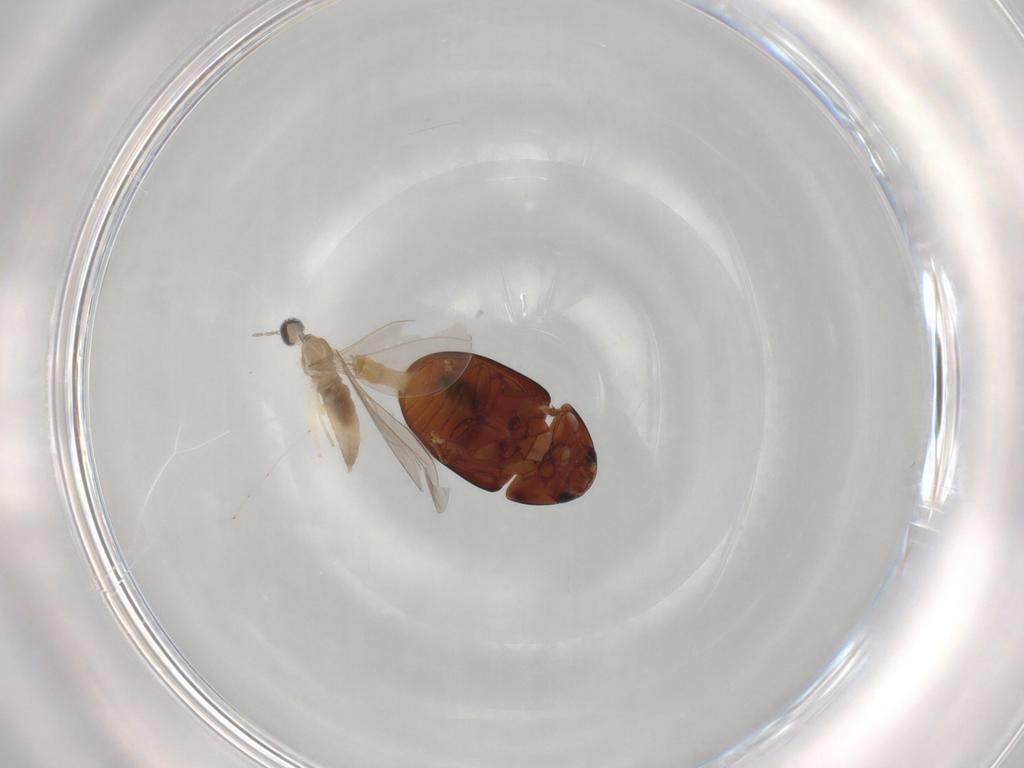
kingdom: Animalia
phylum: Arthropoda
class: Insecta
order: Diptera
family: Cecidomyiidae
